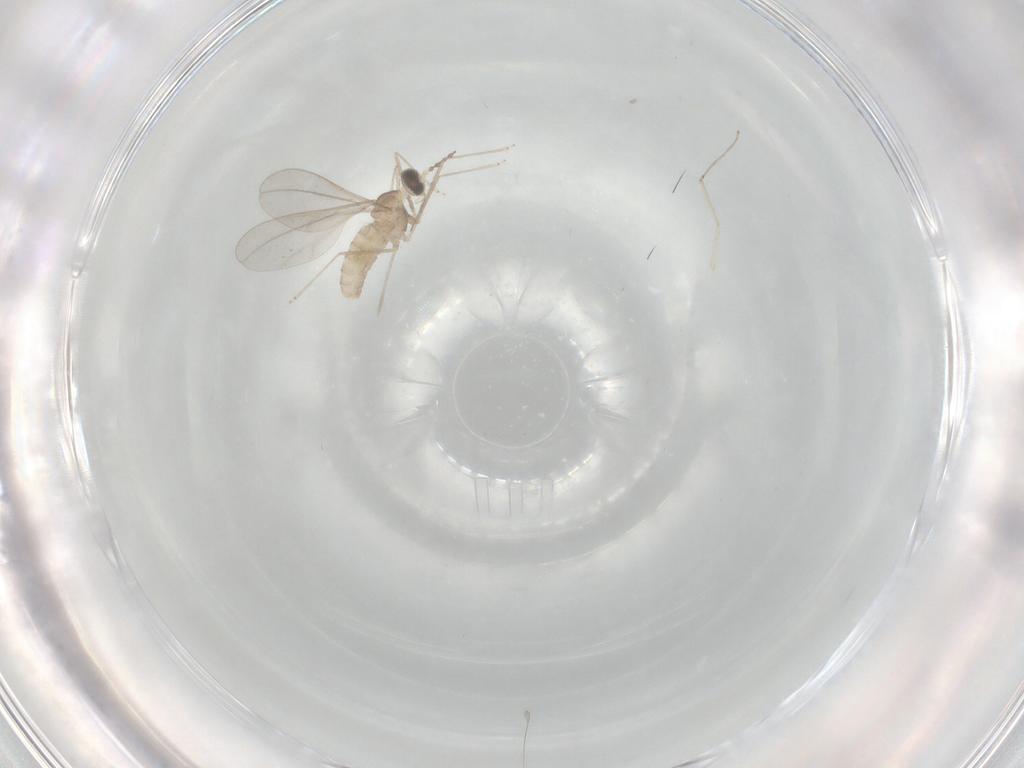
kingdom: Animalia
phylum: Arthropoda
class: Insecta
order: Diptera
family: Cecidomyiidae
